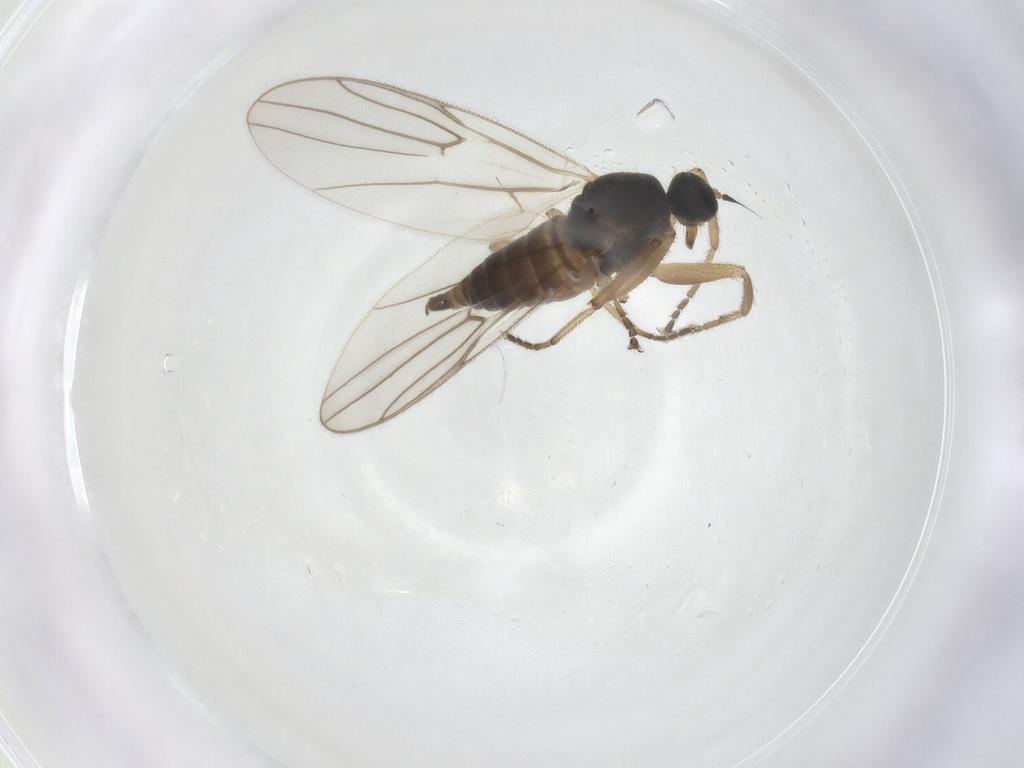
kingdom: Animalia
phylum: Arthropoda
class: Insecta
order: Diptera
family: Hybotidae
